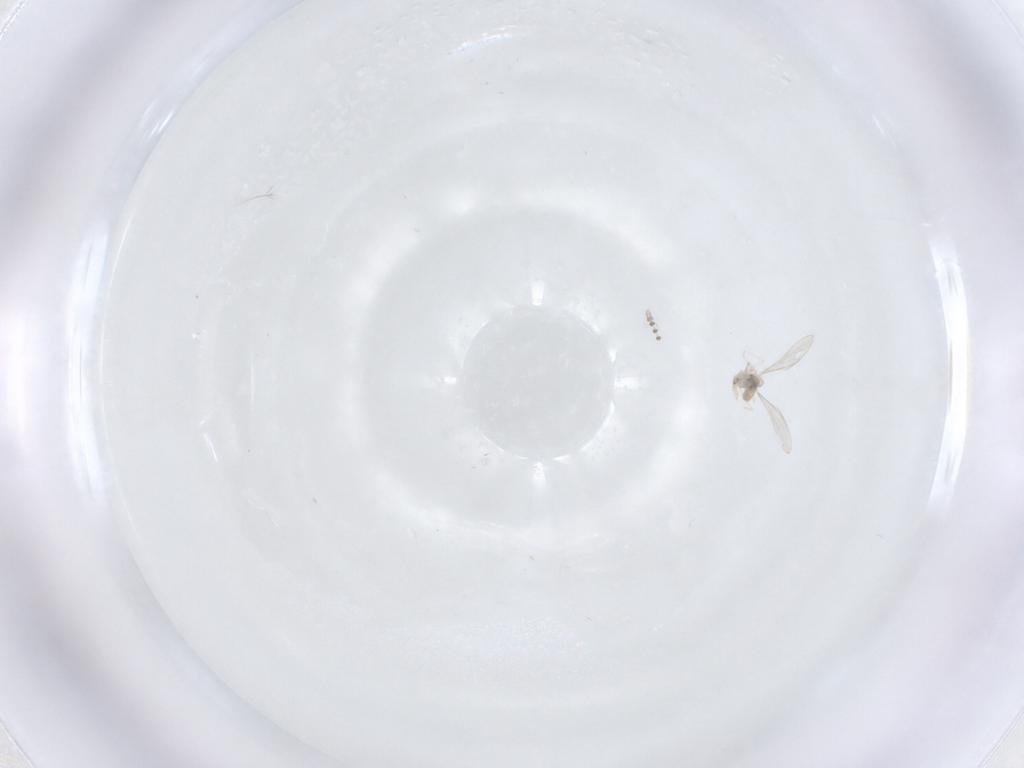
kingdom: Animalia
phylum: Arthropoda
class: Insecta
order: Diptera
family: Cecidomyiidae
